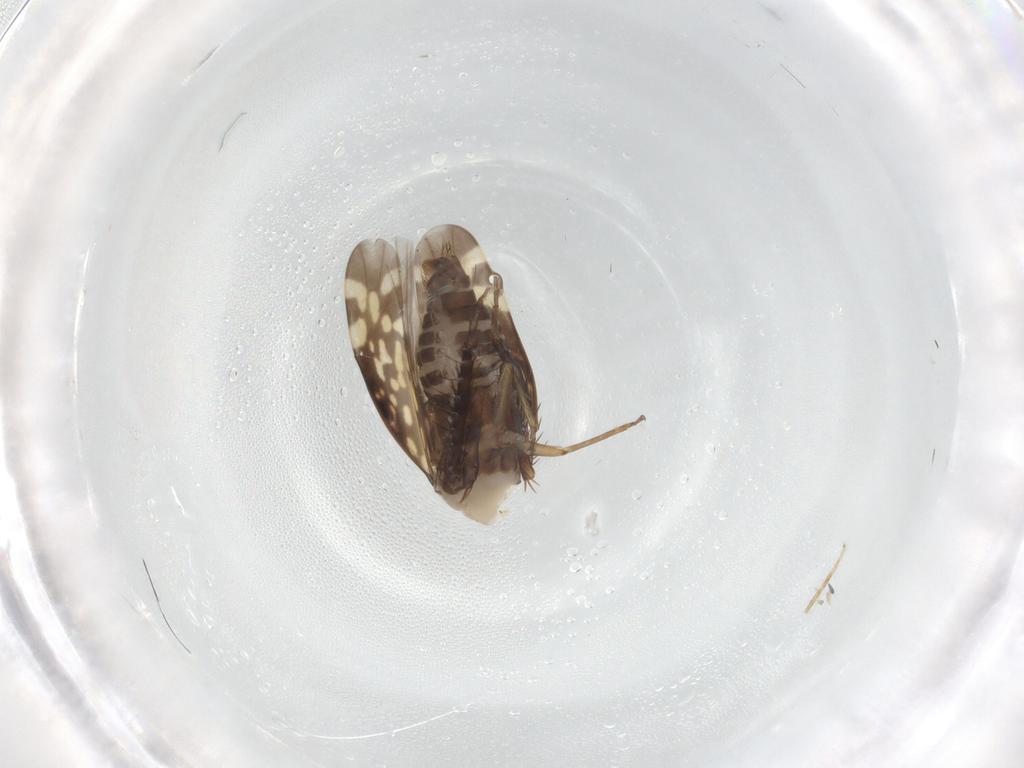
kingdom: Animalia
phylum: Arthropoda
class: Insecta
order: Hemiptera
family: Cicadellidae
